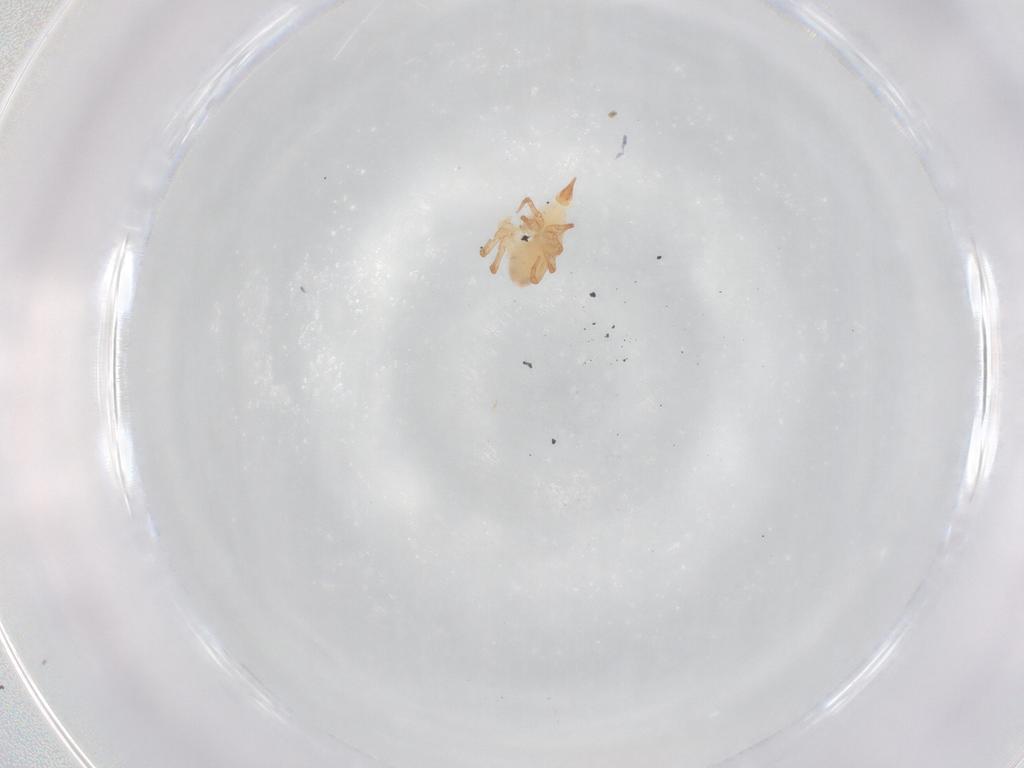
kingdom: Animalia
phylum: Arthropoda
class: Arachnida
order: Sarcoptiformes
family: Eremaeidae
